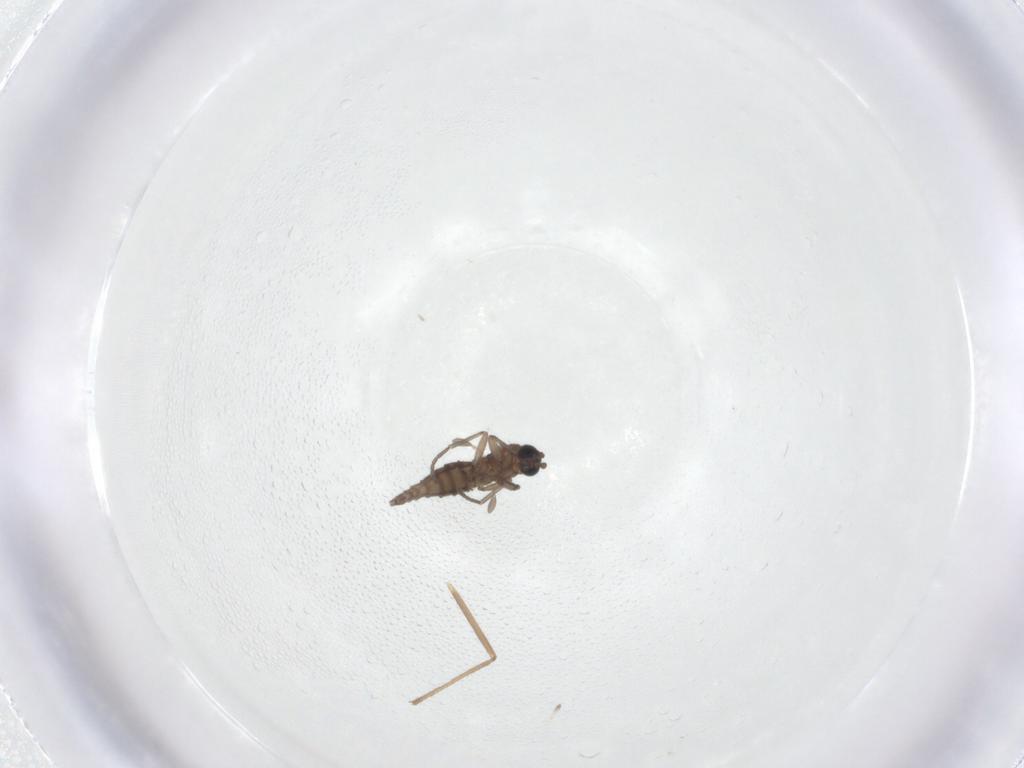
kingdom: Animalia
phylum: Arthropoda
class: Insecta
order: Diptera
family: Chironomidae
